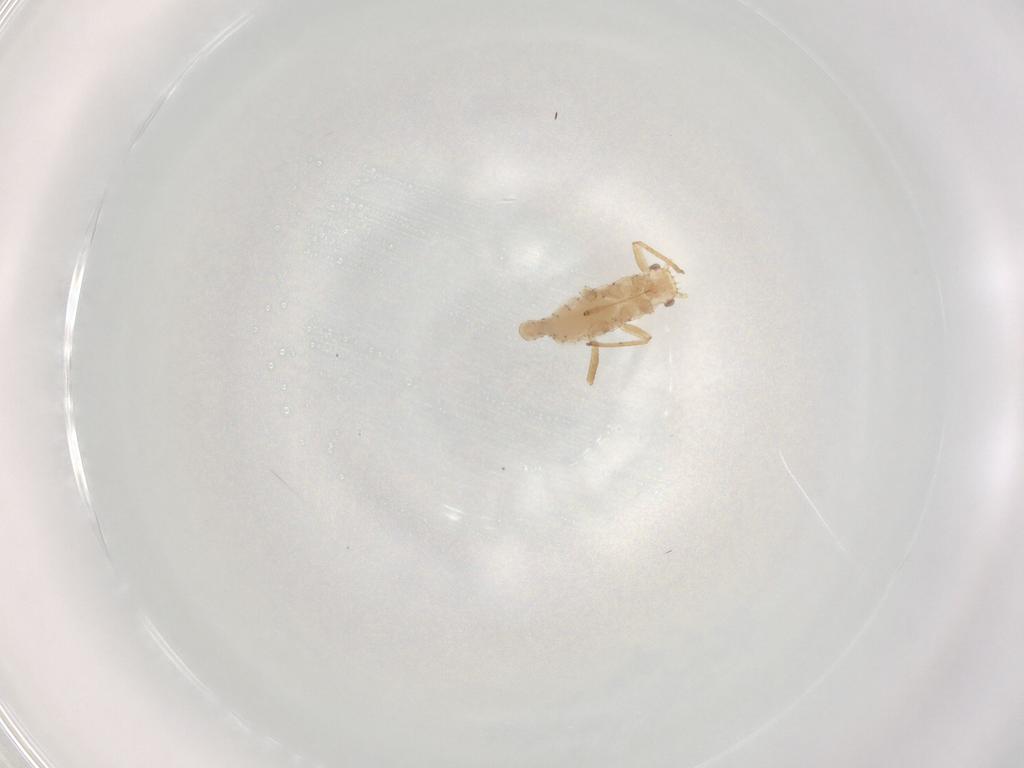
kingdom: Animalia
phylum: Arthropoda
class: Insecta
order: Hemiptera
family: Aphididae
